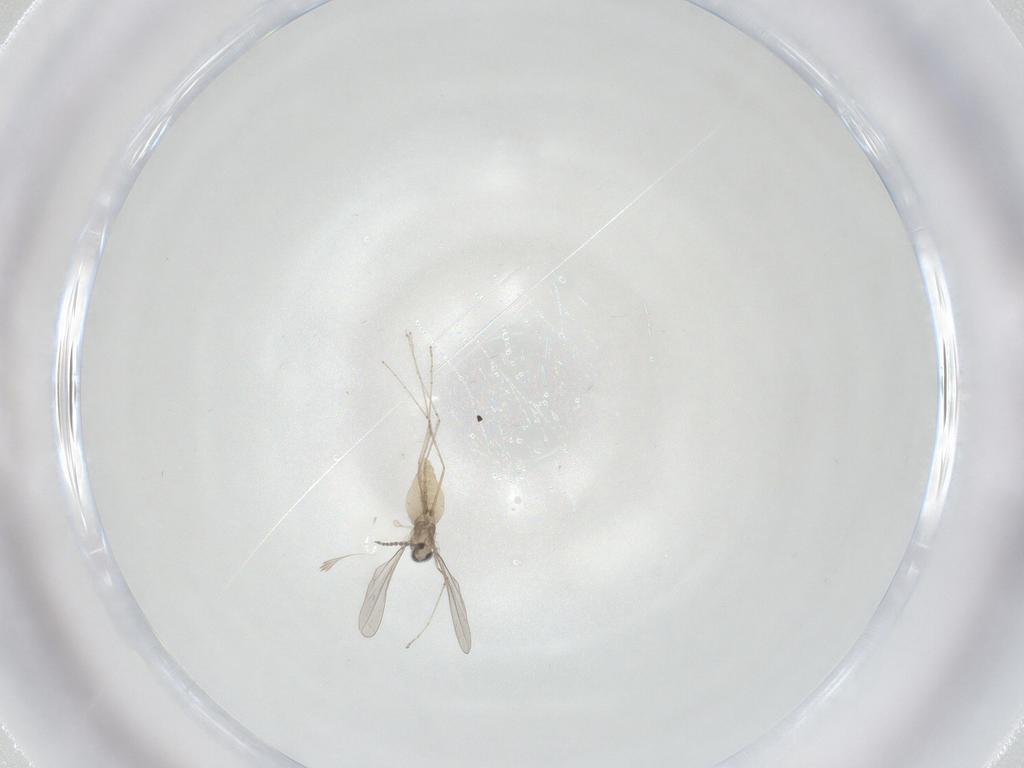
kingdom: Animalia
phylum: Arthropoda
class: Insecta
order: Diptera
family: Cecidomyiidae
